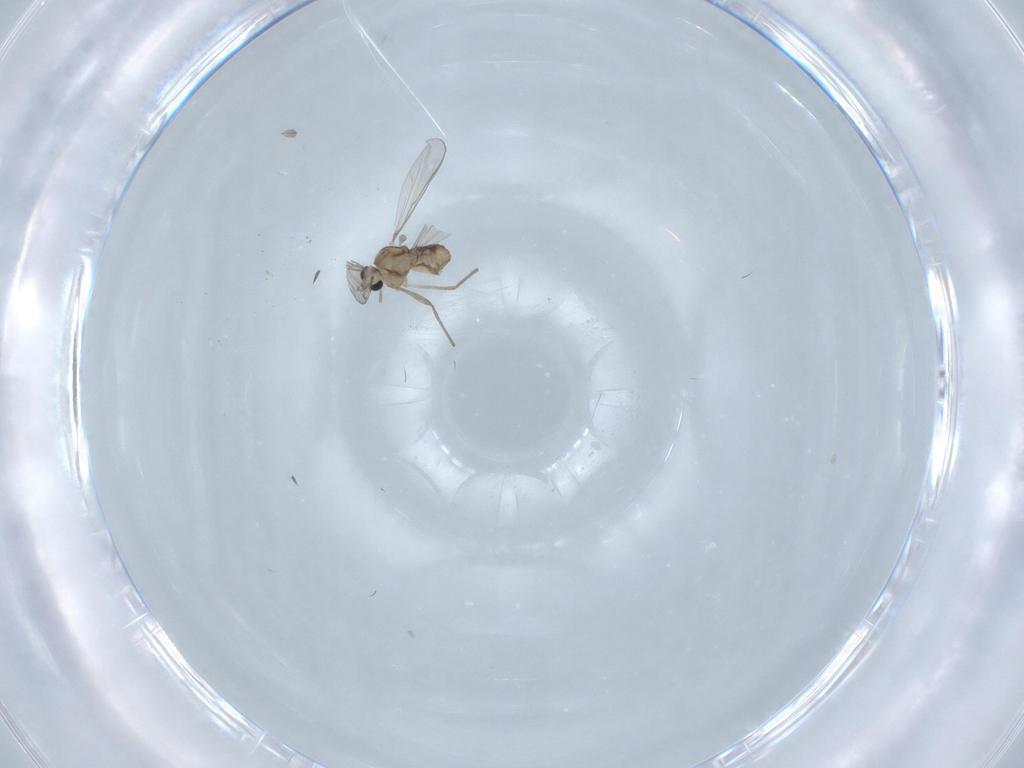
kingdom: Animalia
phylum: Arthropoda
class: Insecta
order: Diptera
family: Chironomidae
